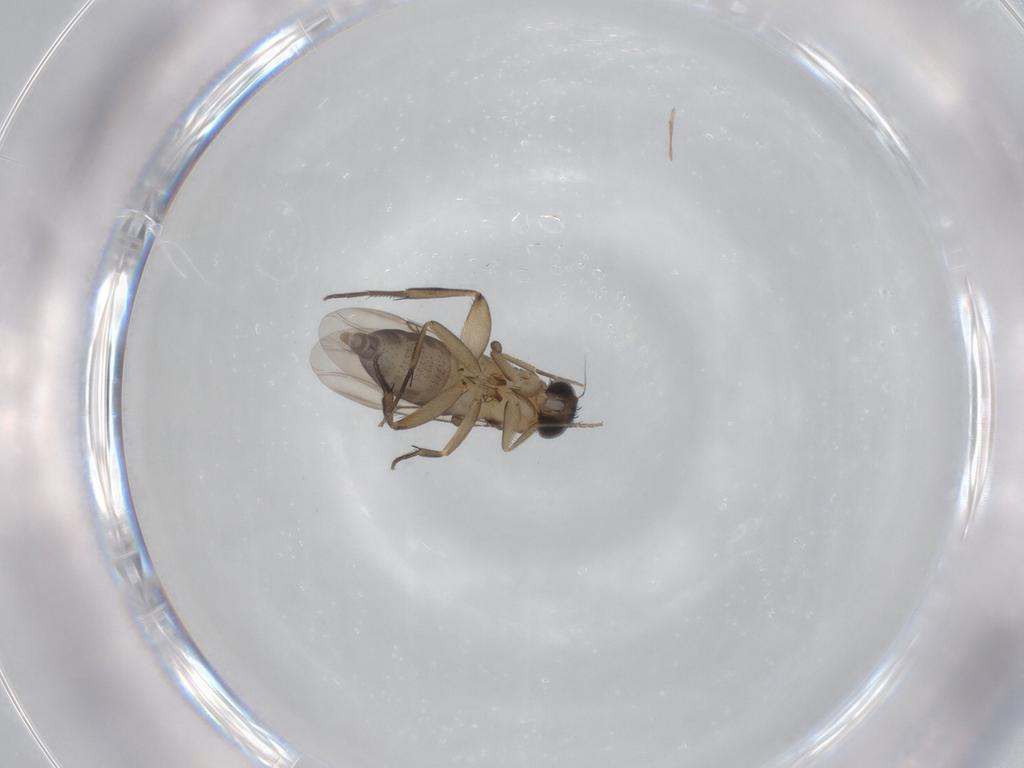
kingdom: Animalia
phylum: Arthropoda
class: Insecta
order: Diptera
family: Phoridae
